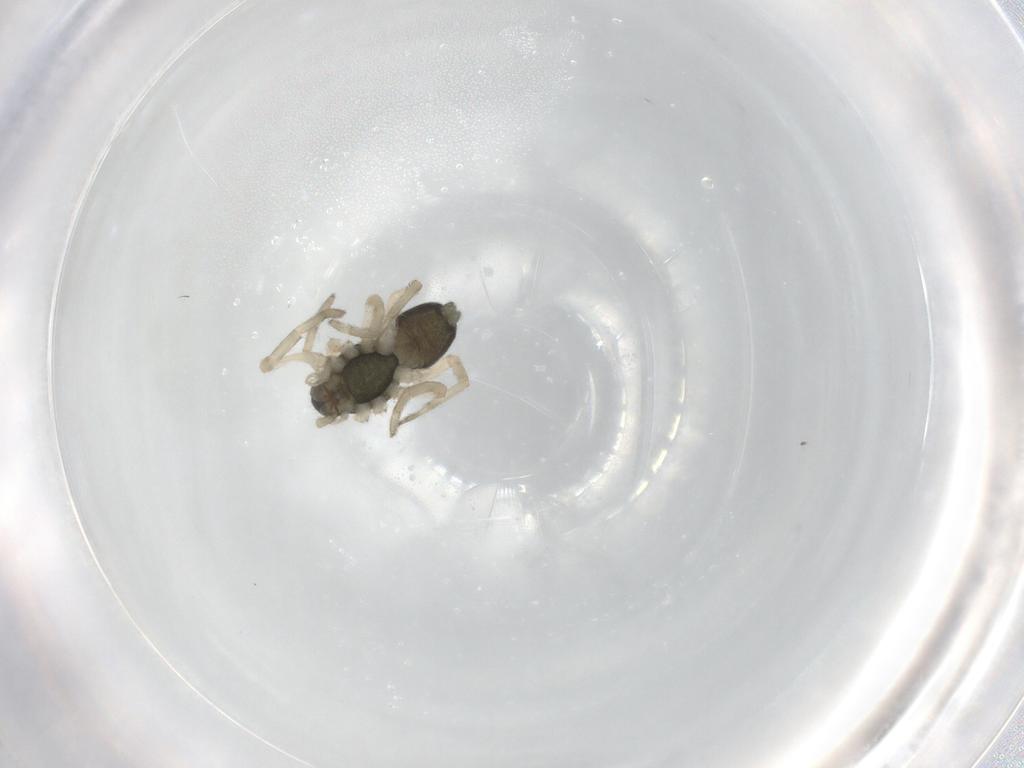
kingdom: Animalia
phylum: Arthropoda
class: Arachnida
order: Araneae
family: Trachelidae
